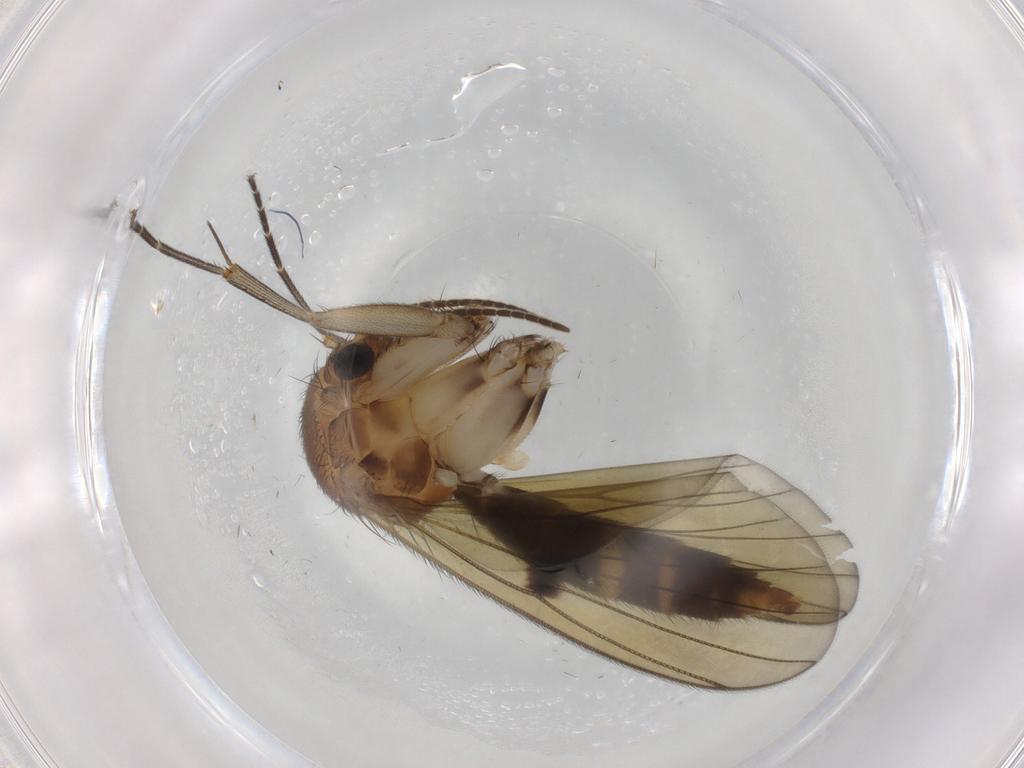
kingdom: Animalia
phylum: Arthropoda
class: Insecta
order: Diptera
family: Mycetophilidae
